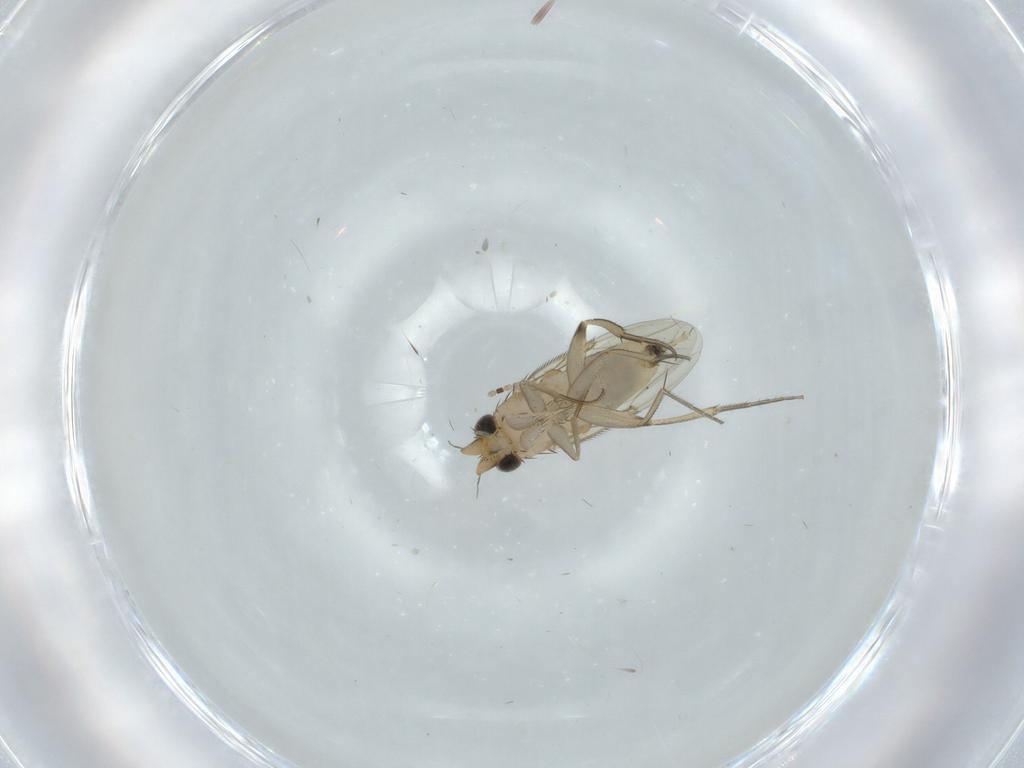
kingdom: Animalia
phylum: Arthropoda
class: Insecta
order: Diptera
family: Phoridae
